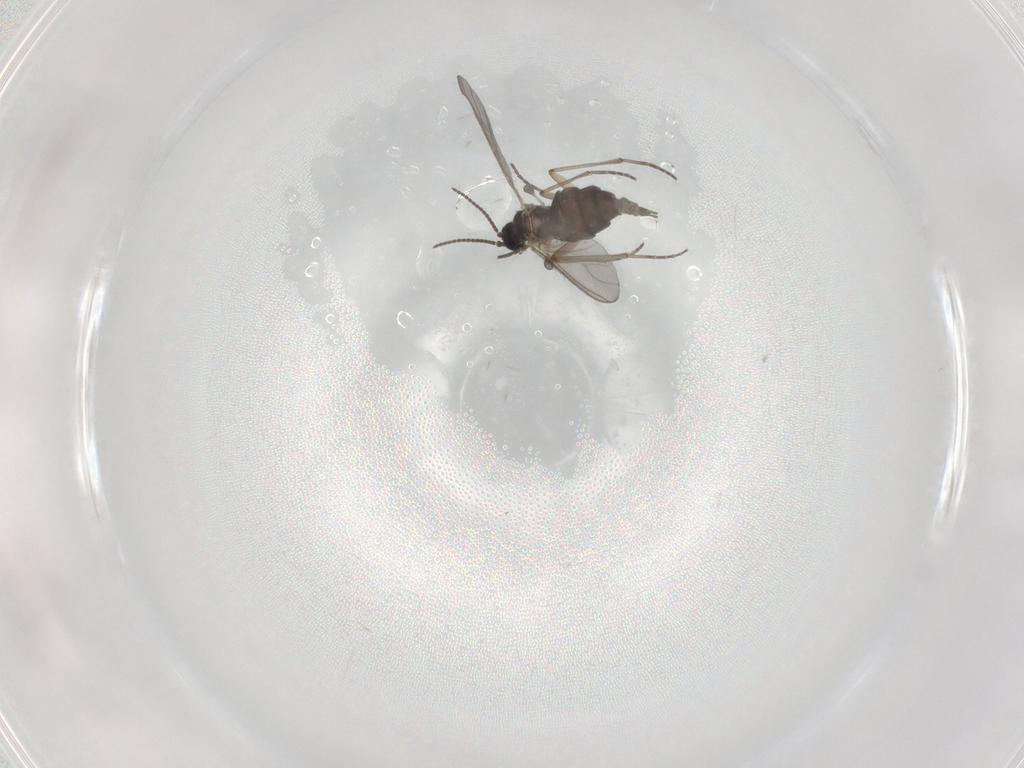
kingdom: Animalia
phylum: Arthropoda
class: Insecta
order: Diptera
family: Sciaridae
